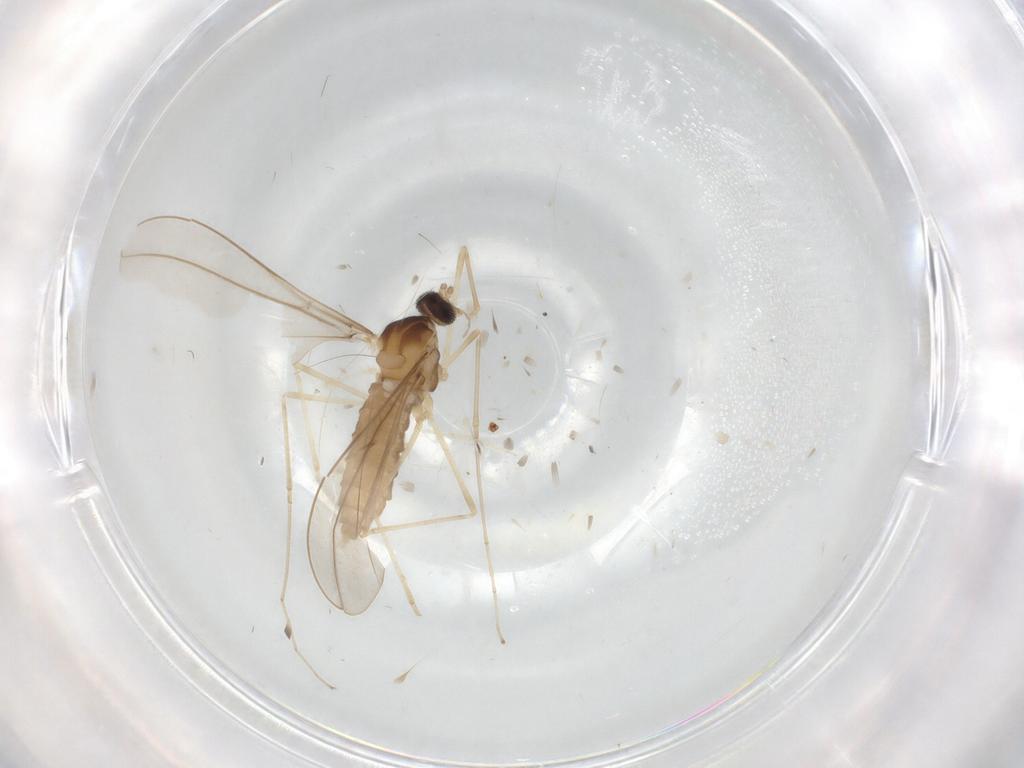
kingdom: Animalia
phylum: Arthropoda
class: Insecta
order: Diptera
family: Cecidomyiidae
